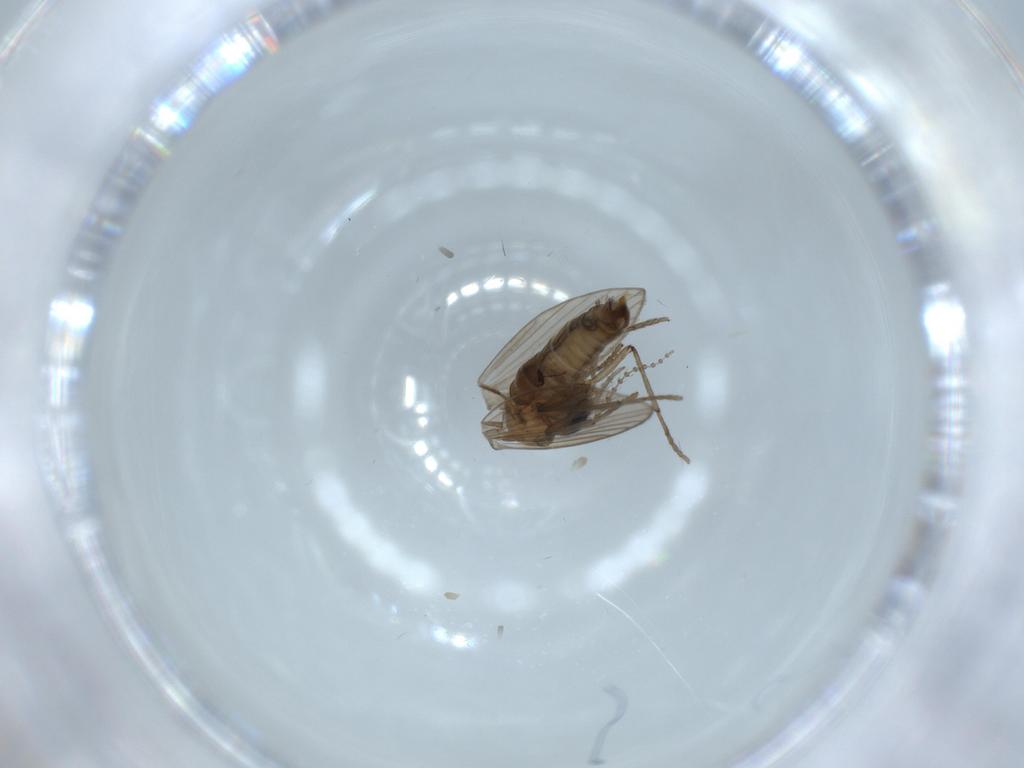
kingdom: Animalia
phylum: Arthropoda
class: Insecta
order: Diptera
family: Psychodidae
